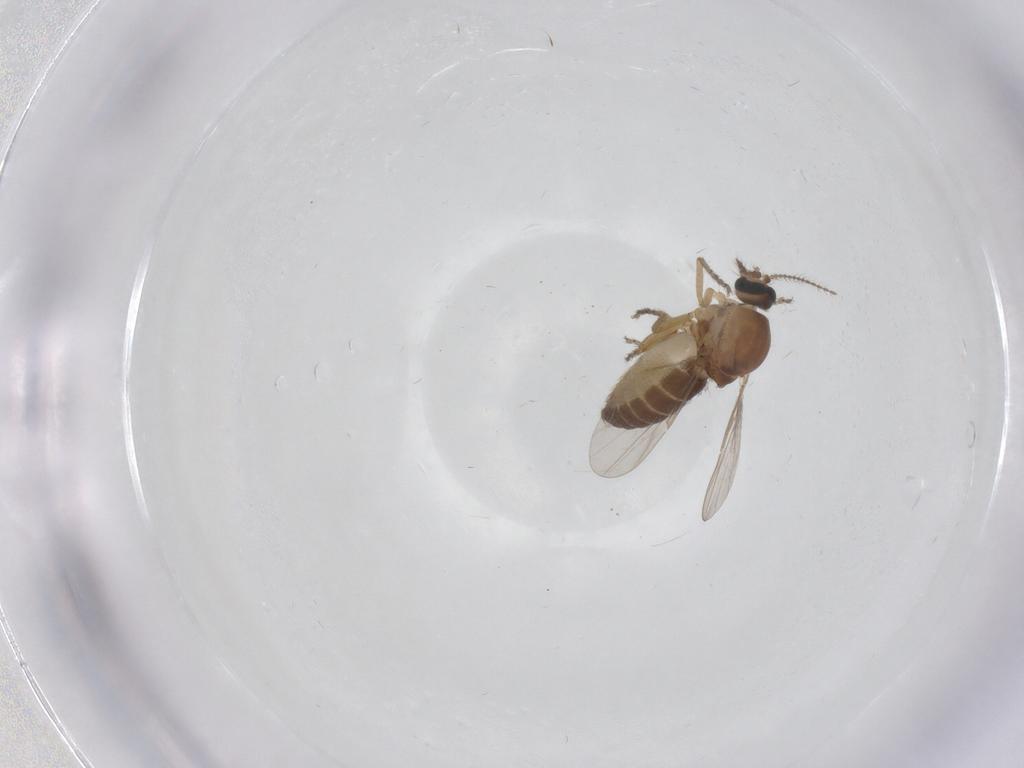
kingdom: Animalia
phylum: Arthropoda
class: Insecta
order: Diptera
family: Ceratopogonidae
